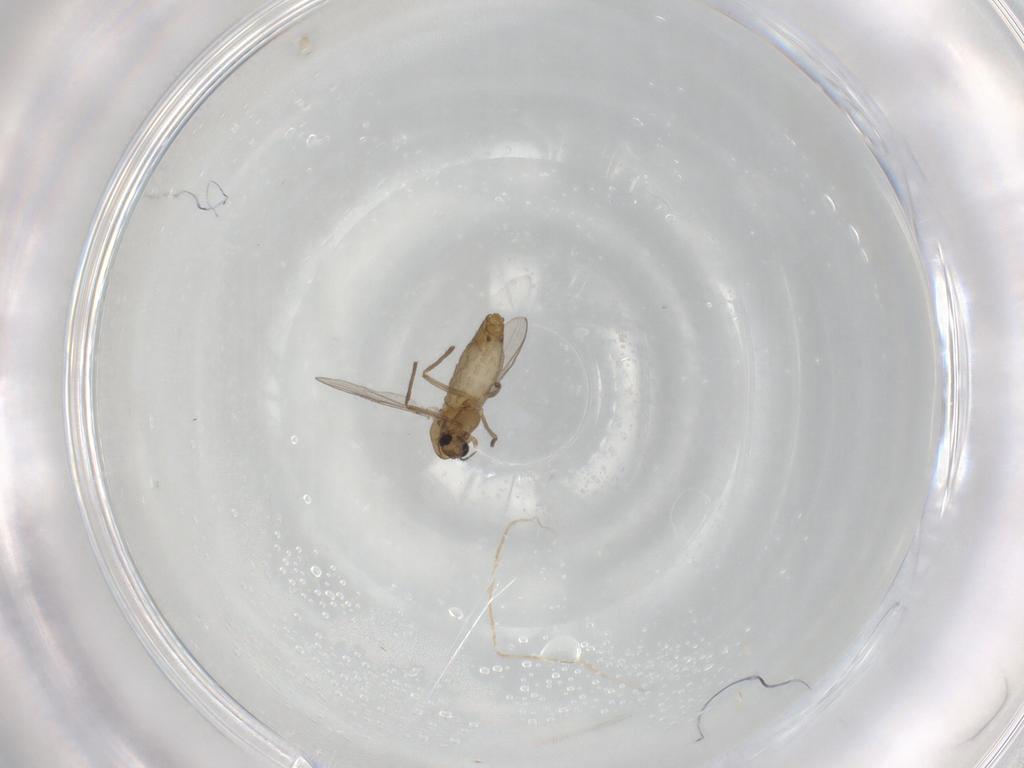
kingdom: Animalia
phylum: Arthropoda
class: Insecta
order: Diptera
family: Chironomidae
